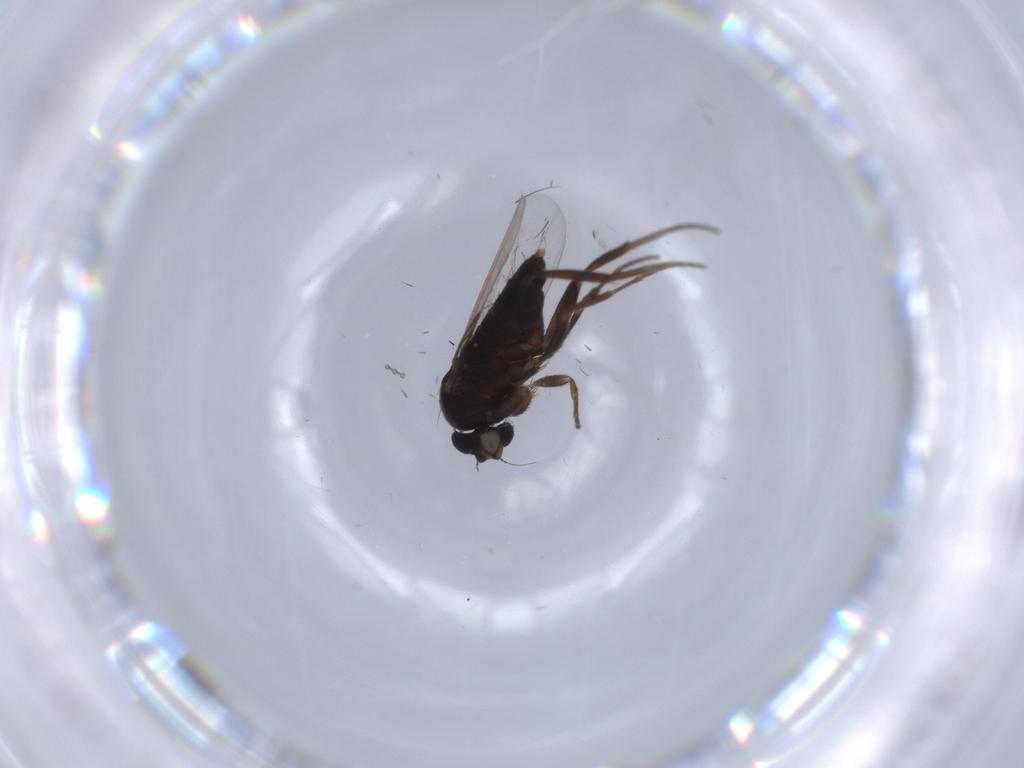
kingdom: Animalia
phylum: Arthropoda
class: Insecta
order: Diptera
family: Phoridae
